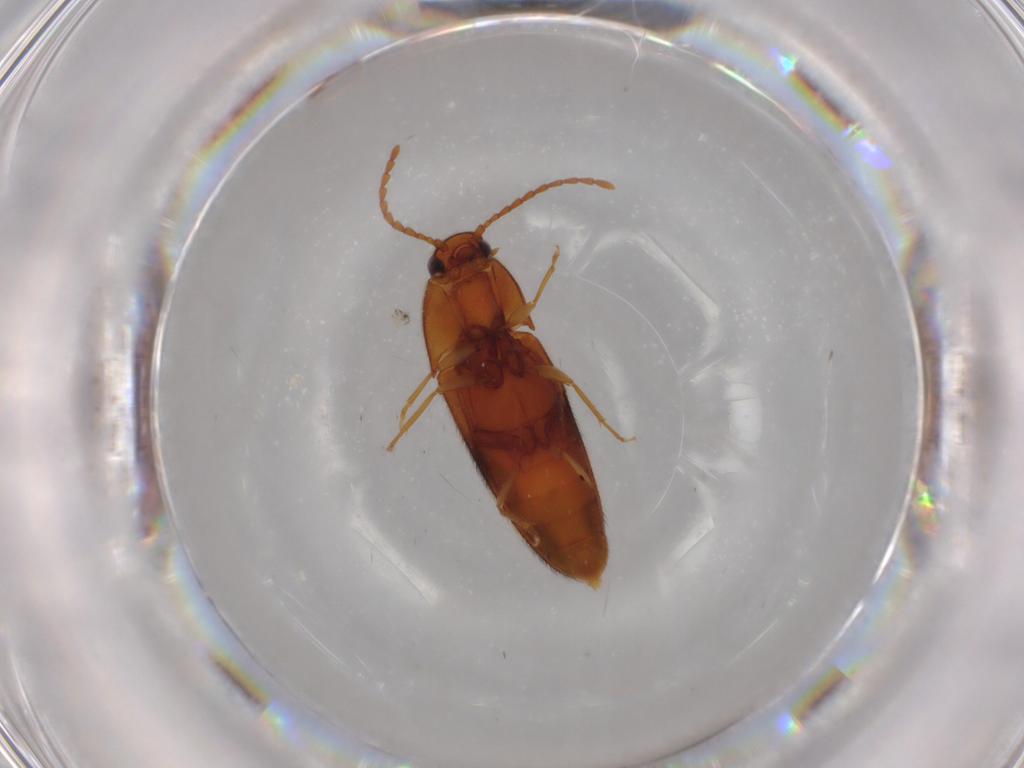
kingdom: Animalia
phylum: Arthropoda
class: Insecta
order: Coleoptera
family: Elateridae
